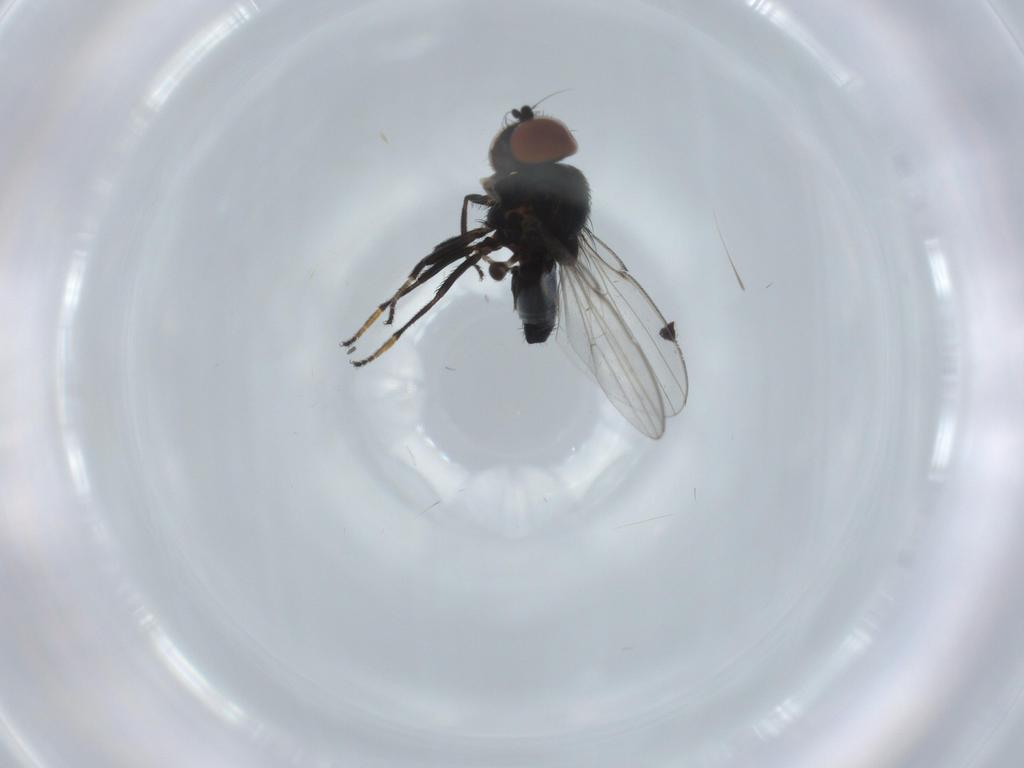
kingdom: Animalia
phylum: Arthropoda
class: Insecta
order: Diptera
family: Milichiidae
